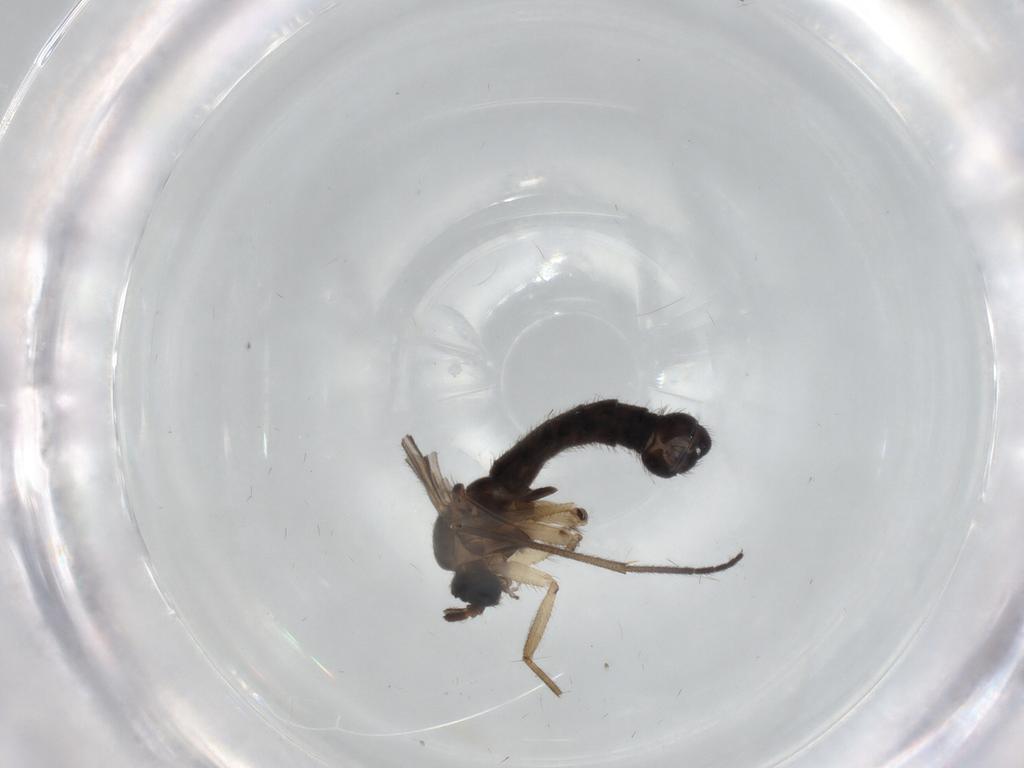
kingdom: Animalia
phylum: Arthropoda
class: Insecta
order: Diptera
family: Sciaridae
